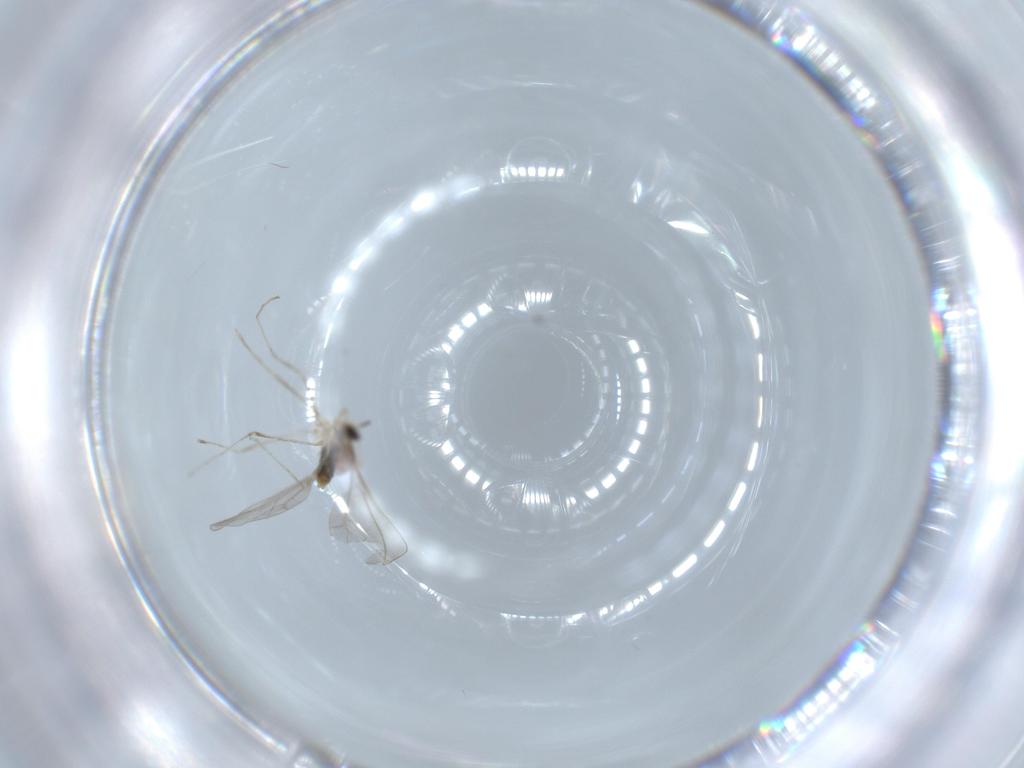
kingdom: Animalia
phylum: Arthropoda
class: Insecta
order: Diptera
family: Cecidomyiidae
